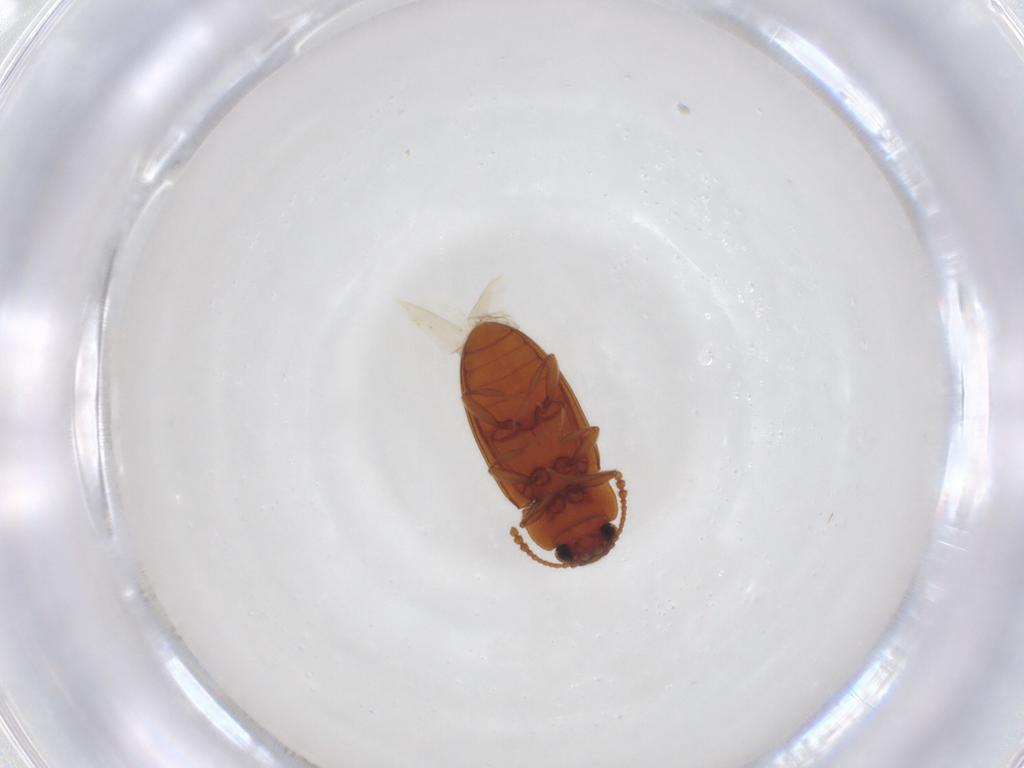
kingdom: Animalia
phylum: Arthropoda
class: Insecta
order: Coleoptera
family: Erotylidae
